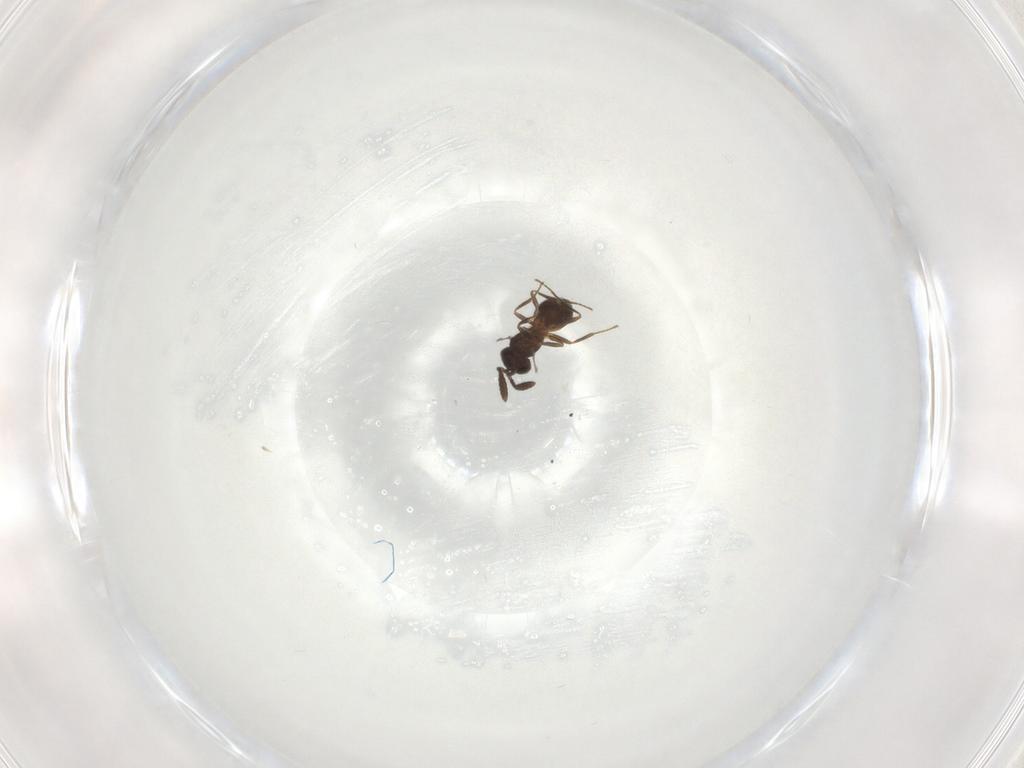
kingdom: Animalia
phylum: Arthropoda
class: Insecta
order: Hymenoptera
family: Scelionidae
